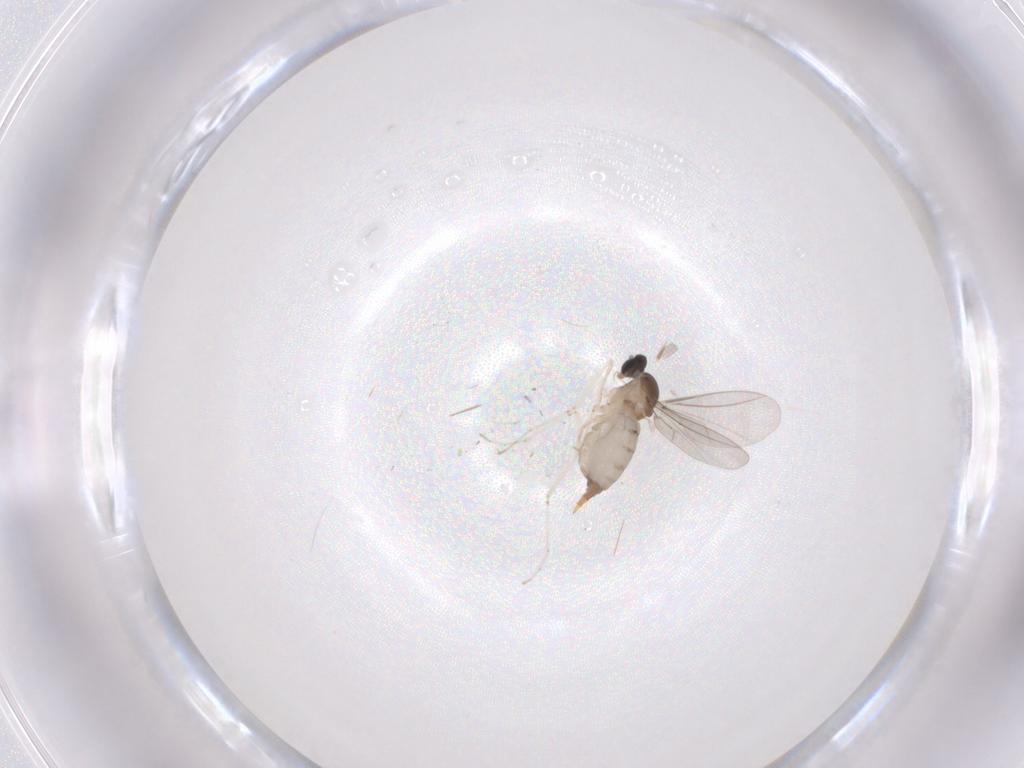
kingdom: Animalia
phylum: Arthropoda
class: Insecta
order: Diptera
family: Cecidomyiidae
